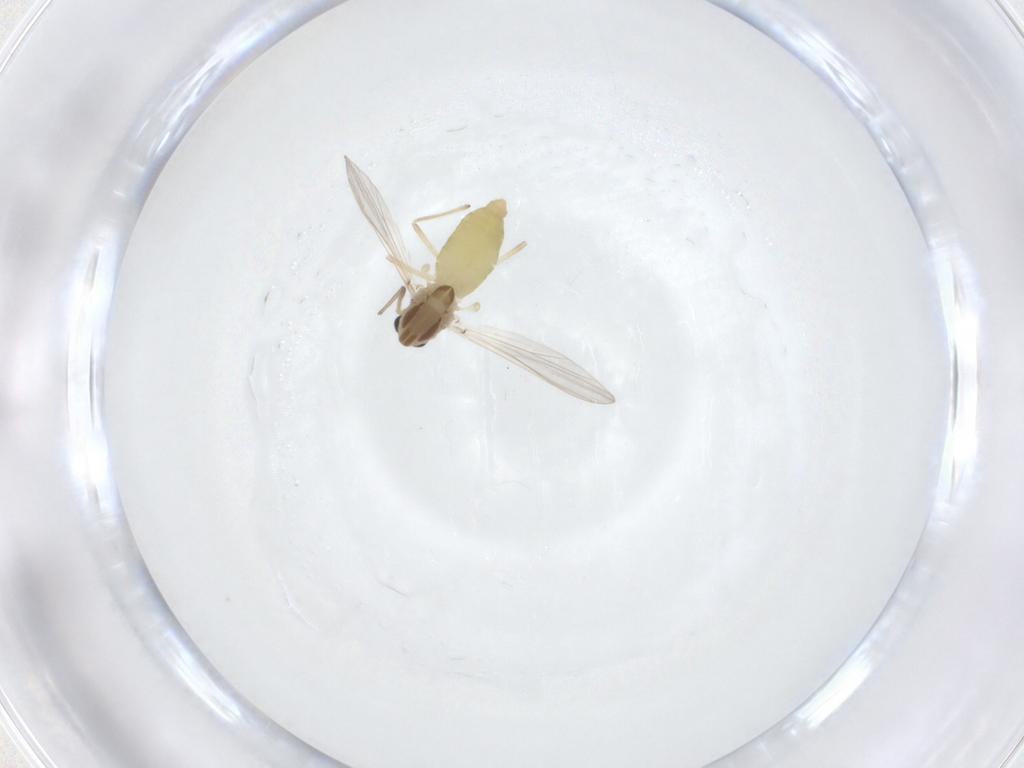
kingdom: Animalia
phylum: Arthropoda
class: Insecta
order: Diptera
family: Chironomidae
